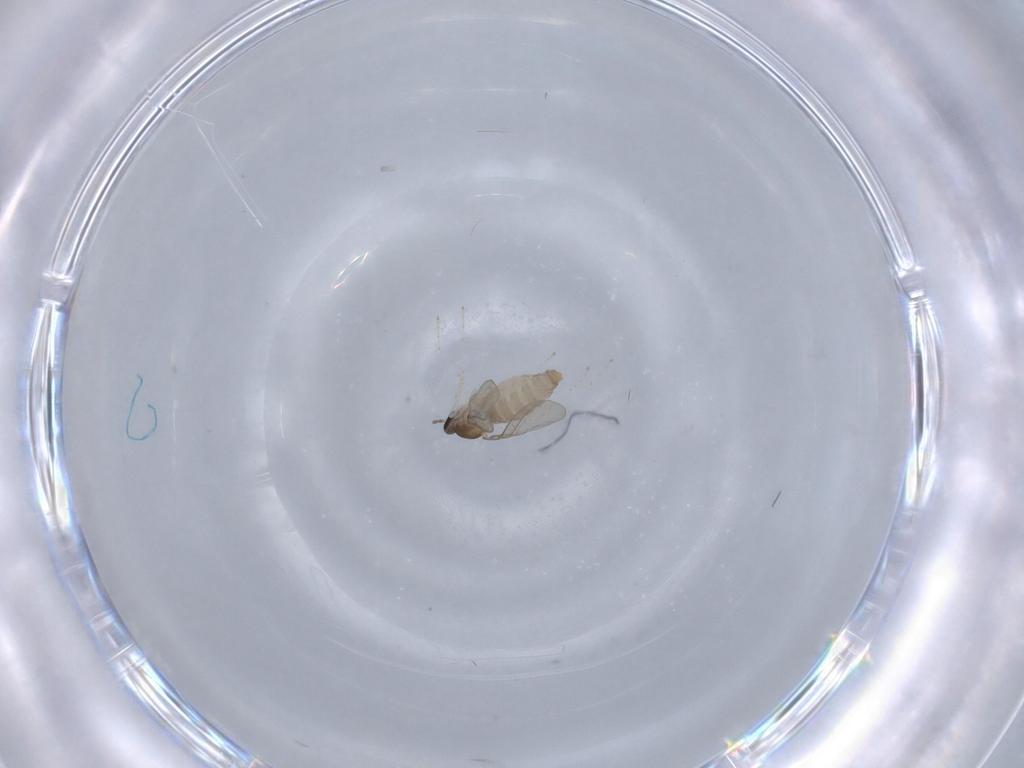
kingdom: Animalia
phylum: Arthropoda
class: Insecta
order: Diptera
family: Cecidomyiidae
